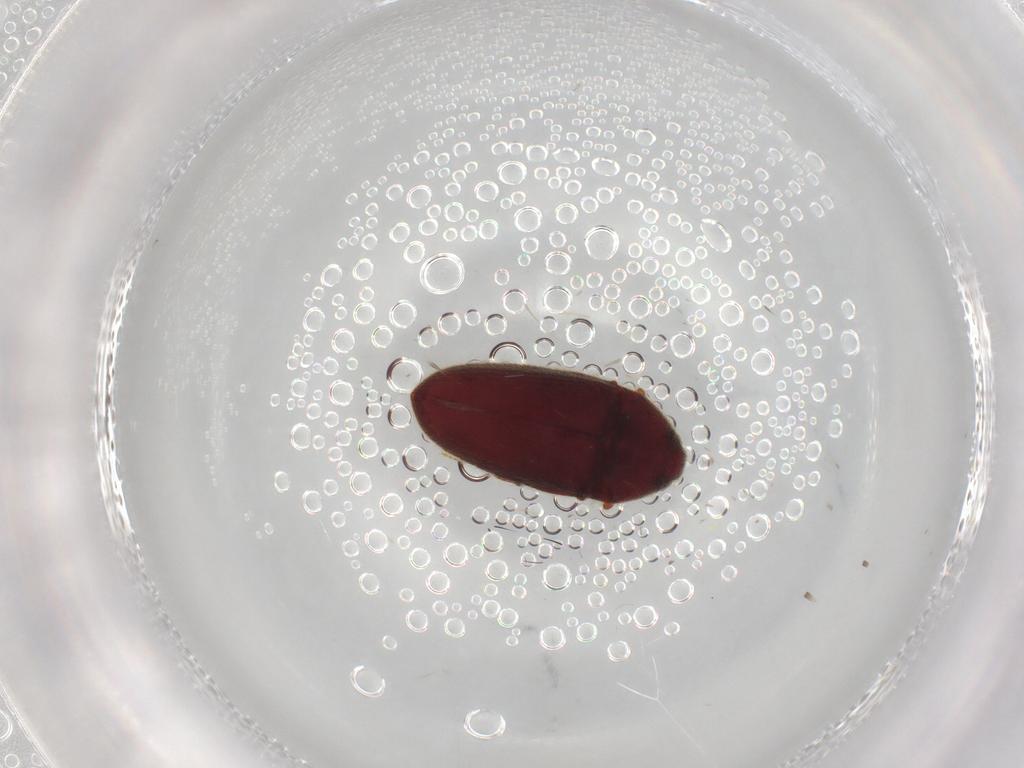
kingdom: Animalia
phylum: Arthropoda
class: Insecta
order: Coleoptera
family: Throscidae
